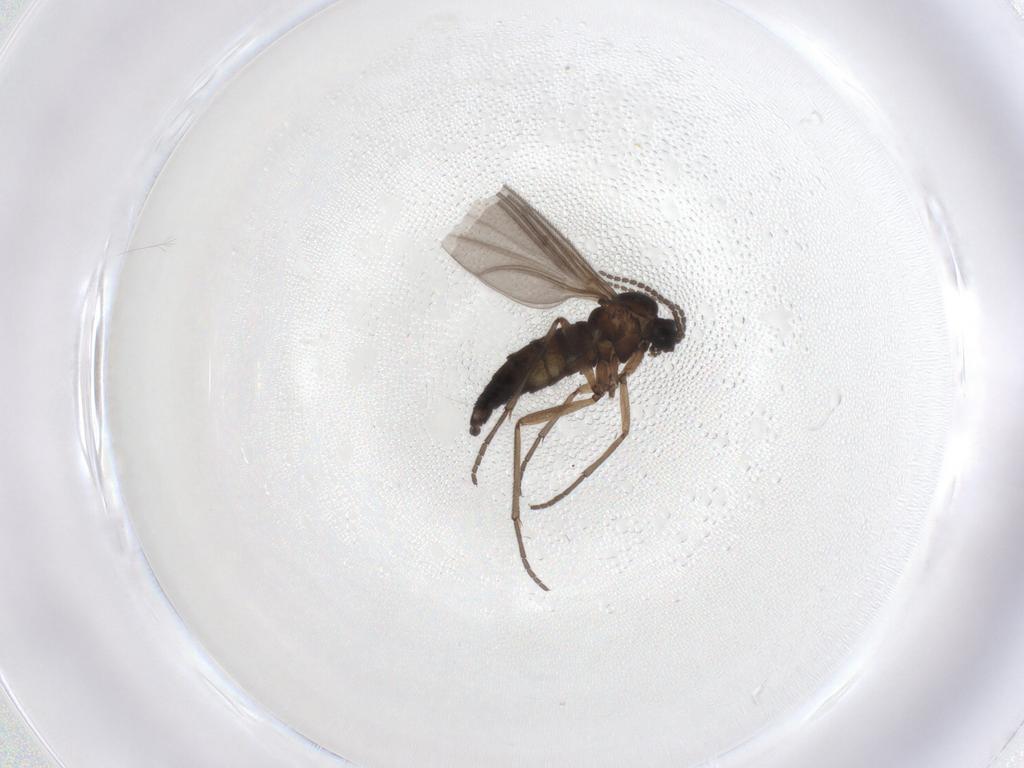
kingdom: Animalia
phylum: Arthropoda
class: Insecta
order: Diptera
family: Sciaridae
